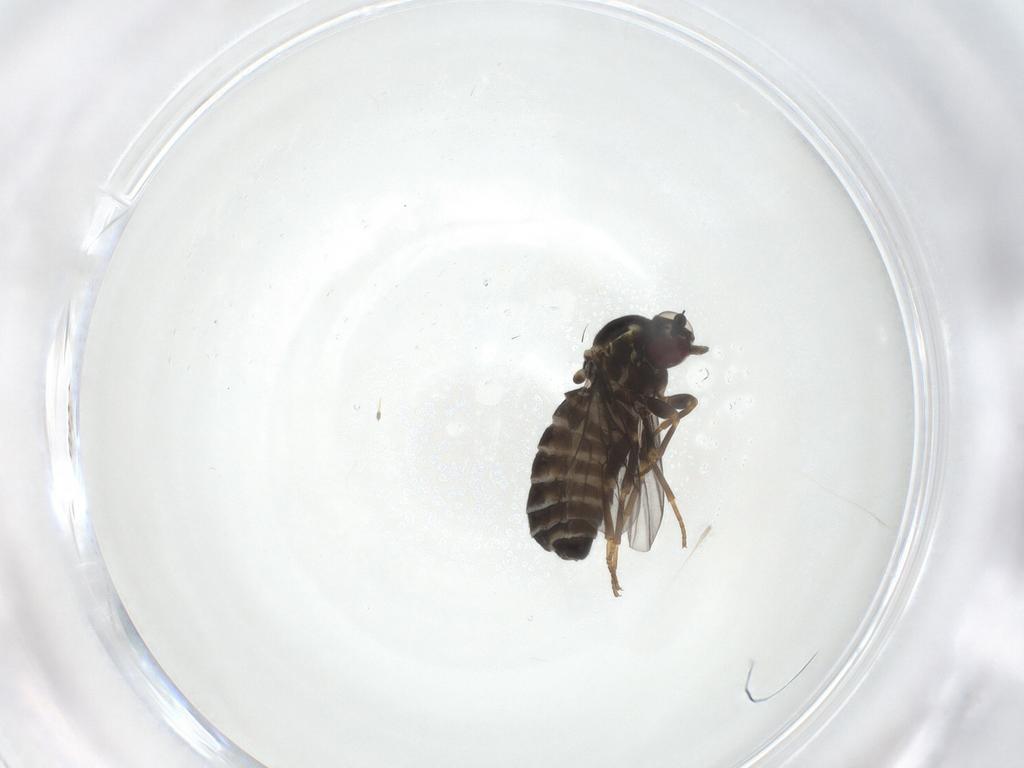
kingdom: Animalia
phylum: Arthropoda
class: Insecta
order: Diptera
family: Bombyliidae
